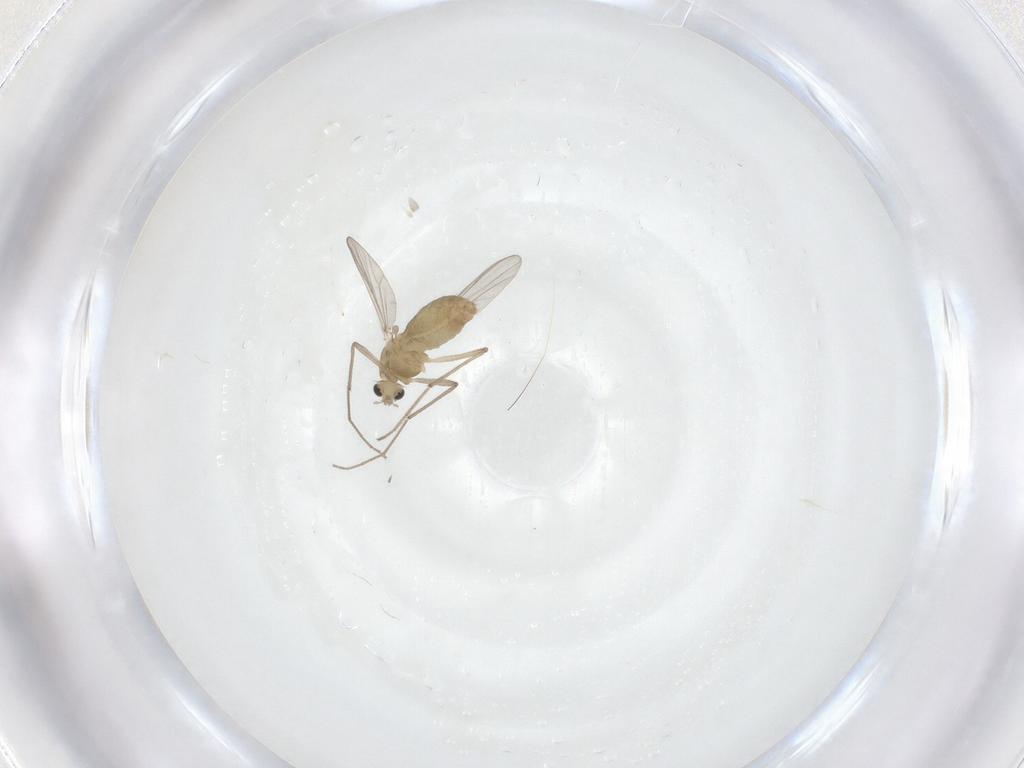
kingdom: Animalia
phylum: Arthropoda
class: Insecta
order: Diptera
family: Chironomidae
